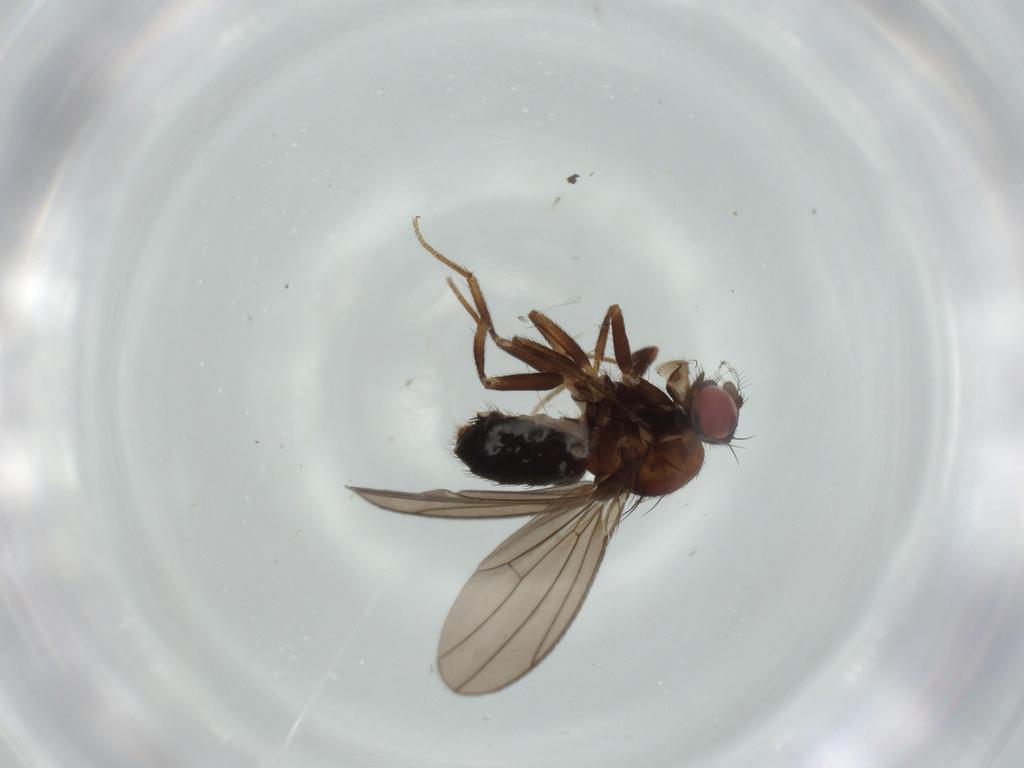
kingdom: Animalia
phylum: Arthropoda
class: Insecta
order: Diptera
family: Drosophilidae
